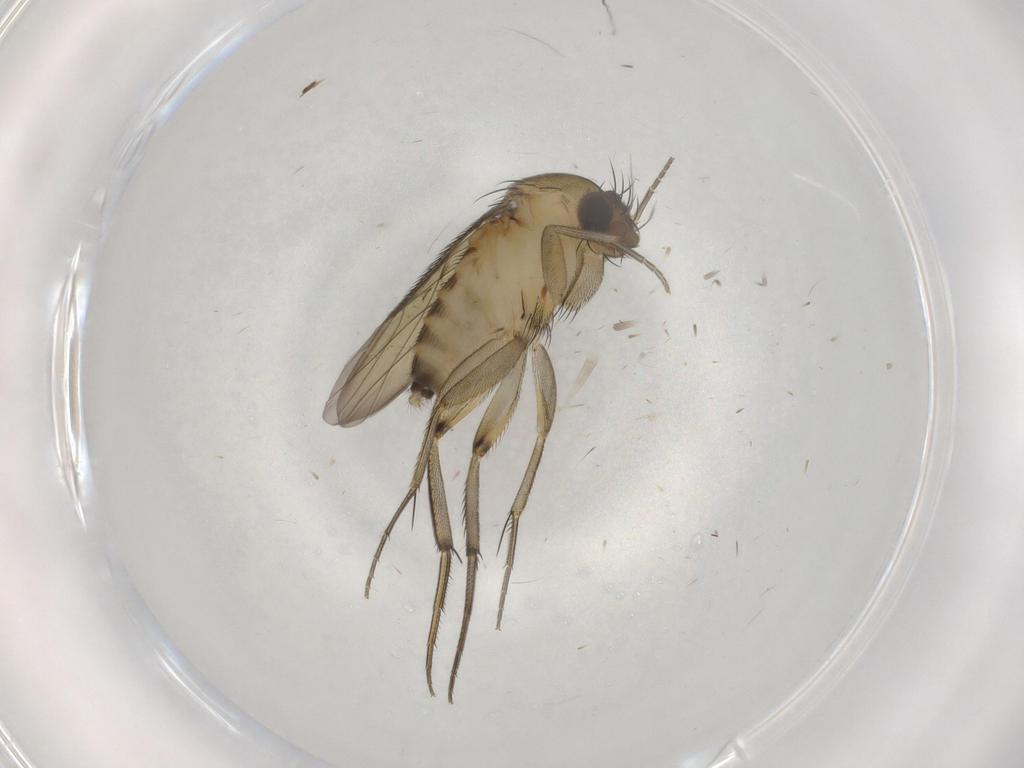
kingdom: Animalia
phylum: Arthropoda
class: Insecta
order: Diptera
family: Phoridae
